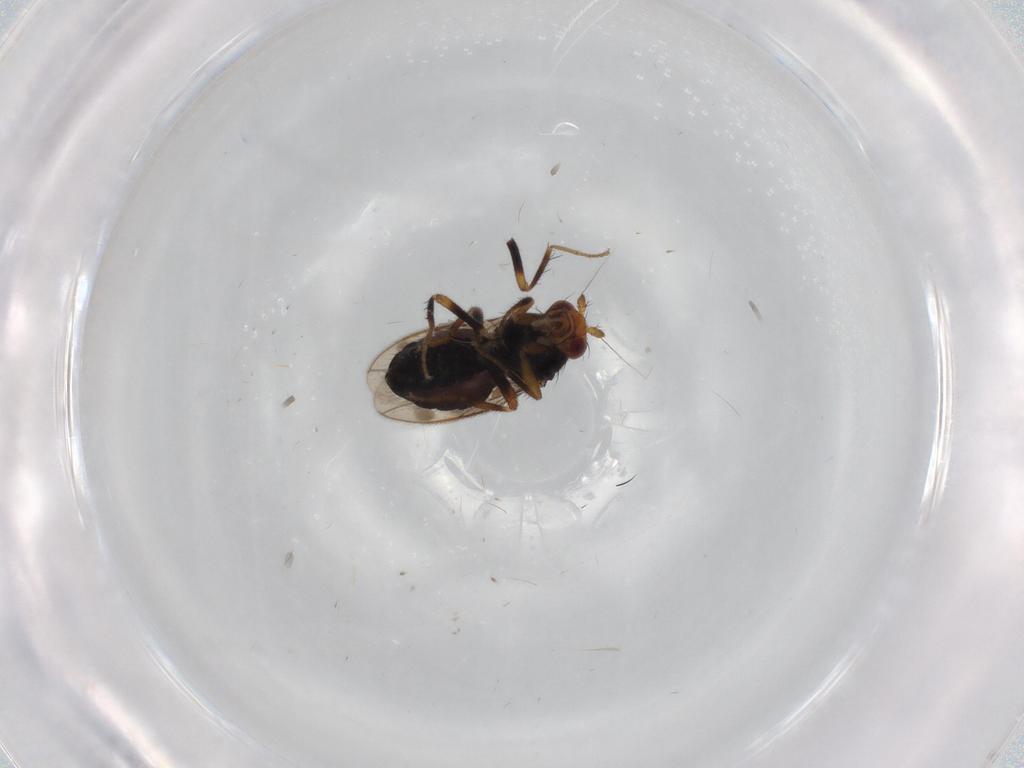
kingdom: Animalia
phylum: Arthropoda
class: Insecta
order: Diptera
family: Sphaeroceridae
